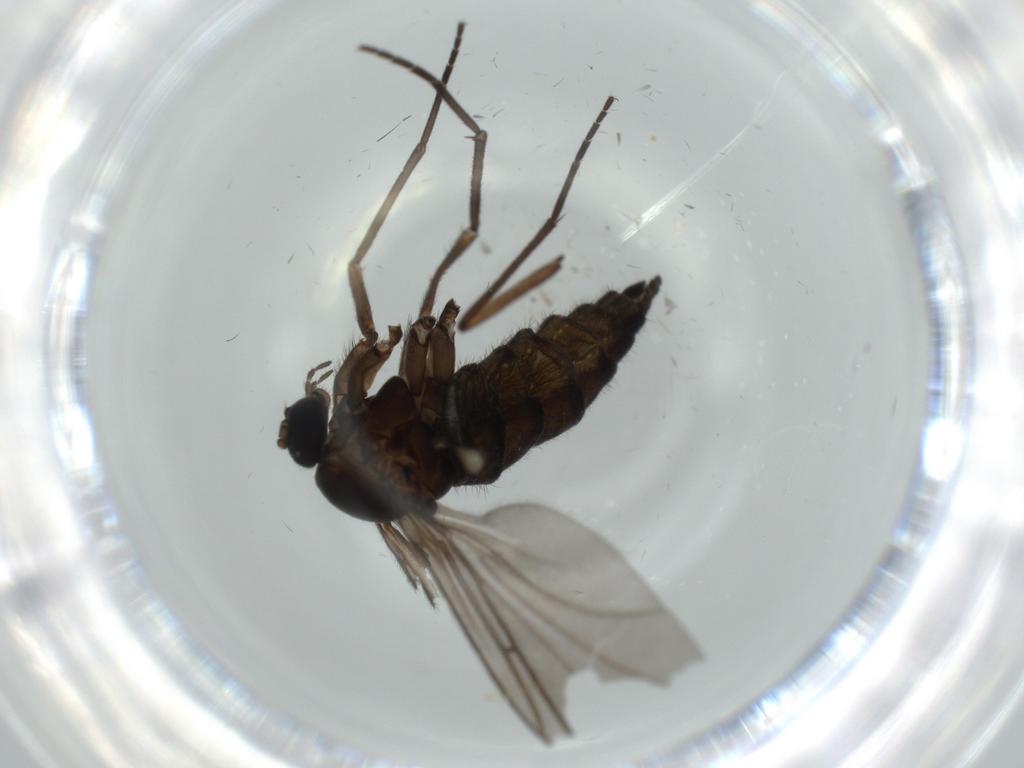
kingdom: Animalia
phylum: Arthropoda
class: Insecta
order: Diptera
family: Sciaridae
